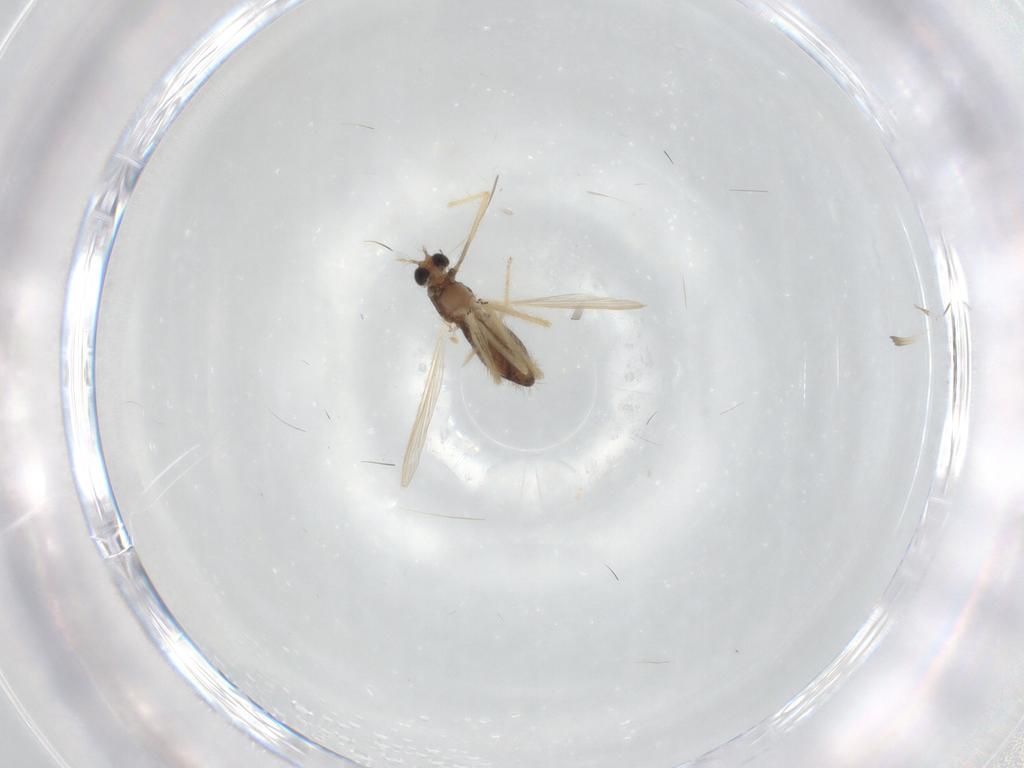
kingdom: Animalia
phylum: Arthropoda
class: Insecta
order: Diptera
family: Chironomidae
